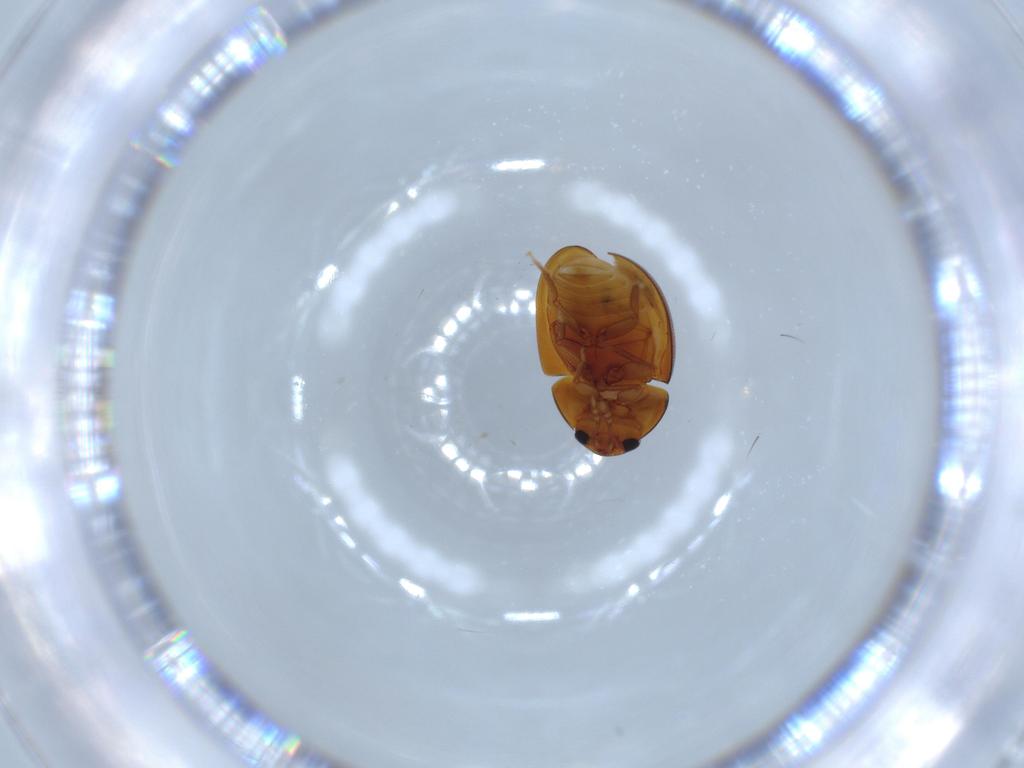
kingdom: Animalia
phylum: Arthropoda
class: Insecta
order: Coleoptera
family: Phalacridae
